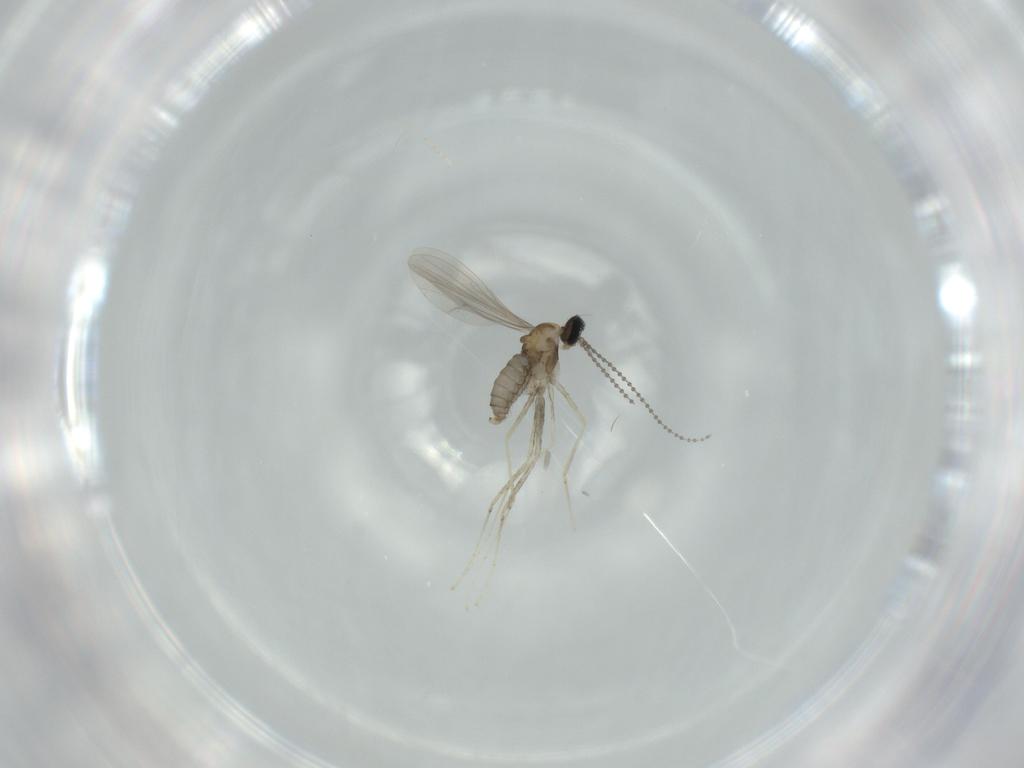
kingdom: Animalia
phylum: Arthropoda
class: Insecta
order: Diptera
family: Cecidomyiidae
